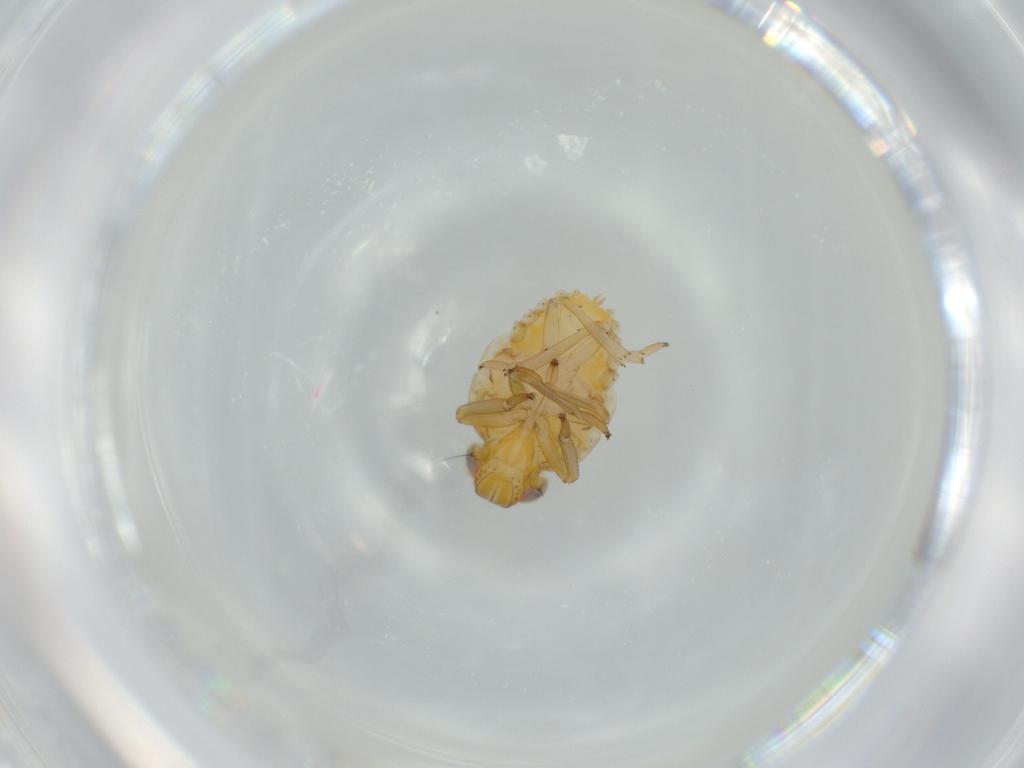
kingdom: Animalia
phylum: Arthropoda
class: Insecta
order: Hemiptera
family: Issidae
